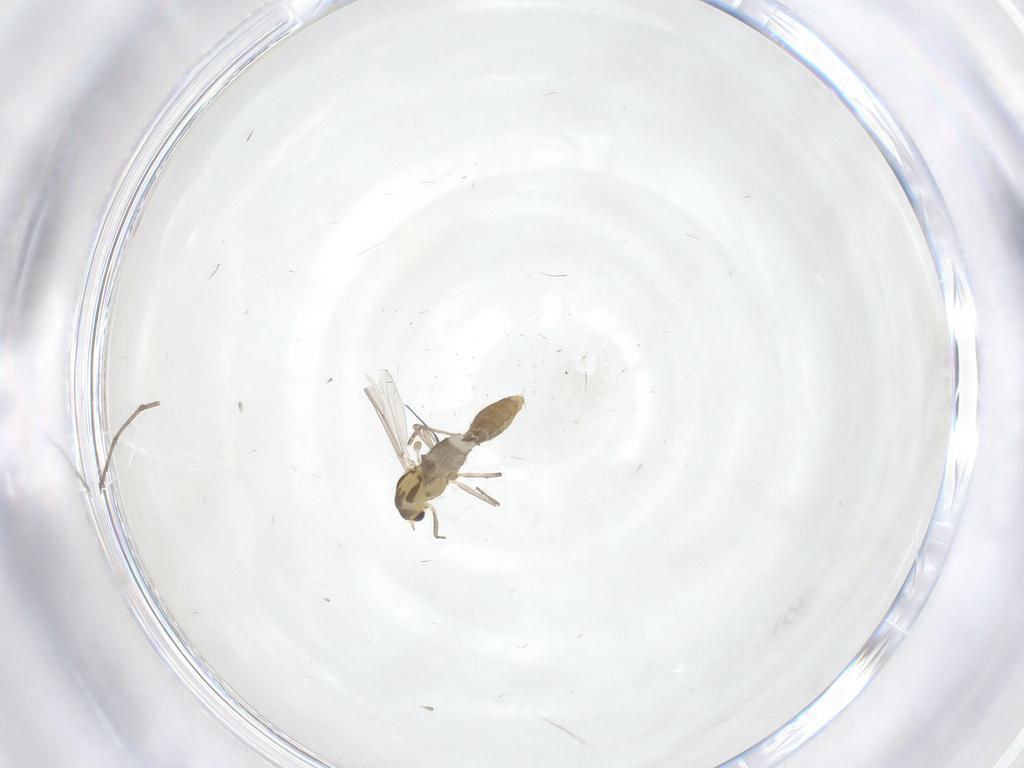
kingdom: Animalia
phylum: Arthropoda
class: Insecta
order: Diptera
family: Chironomidae
